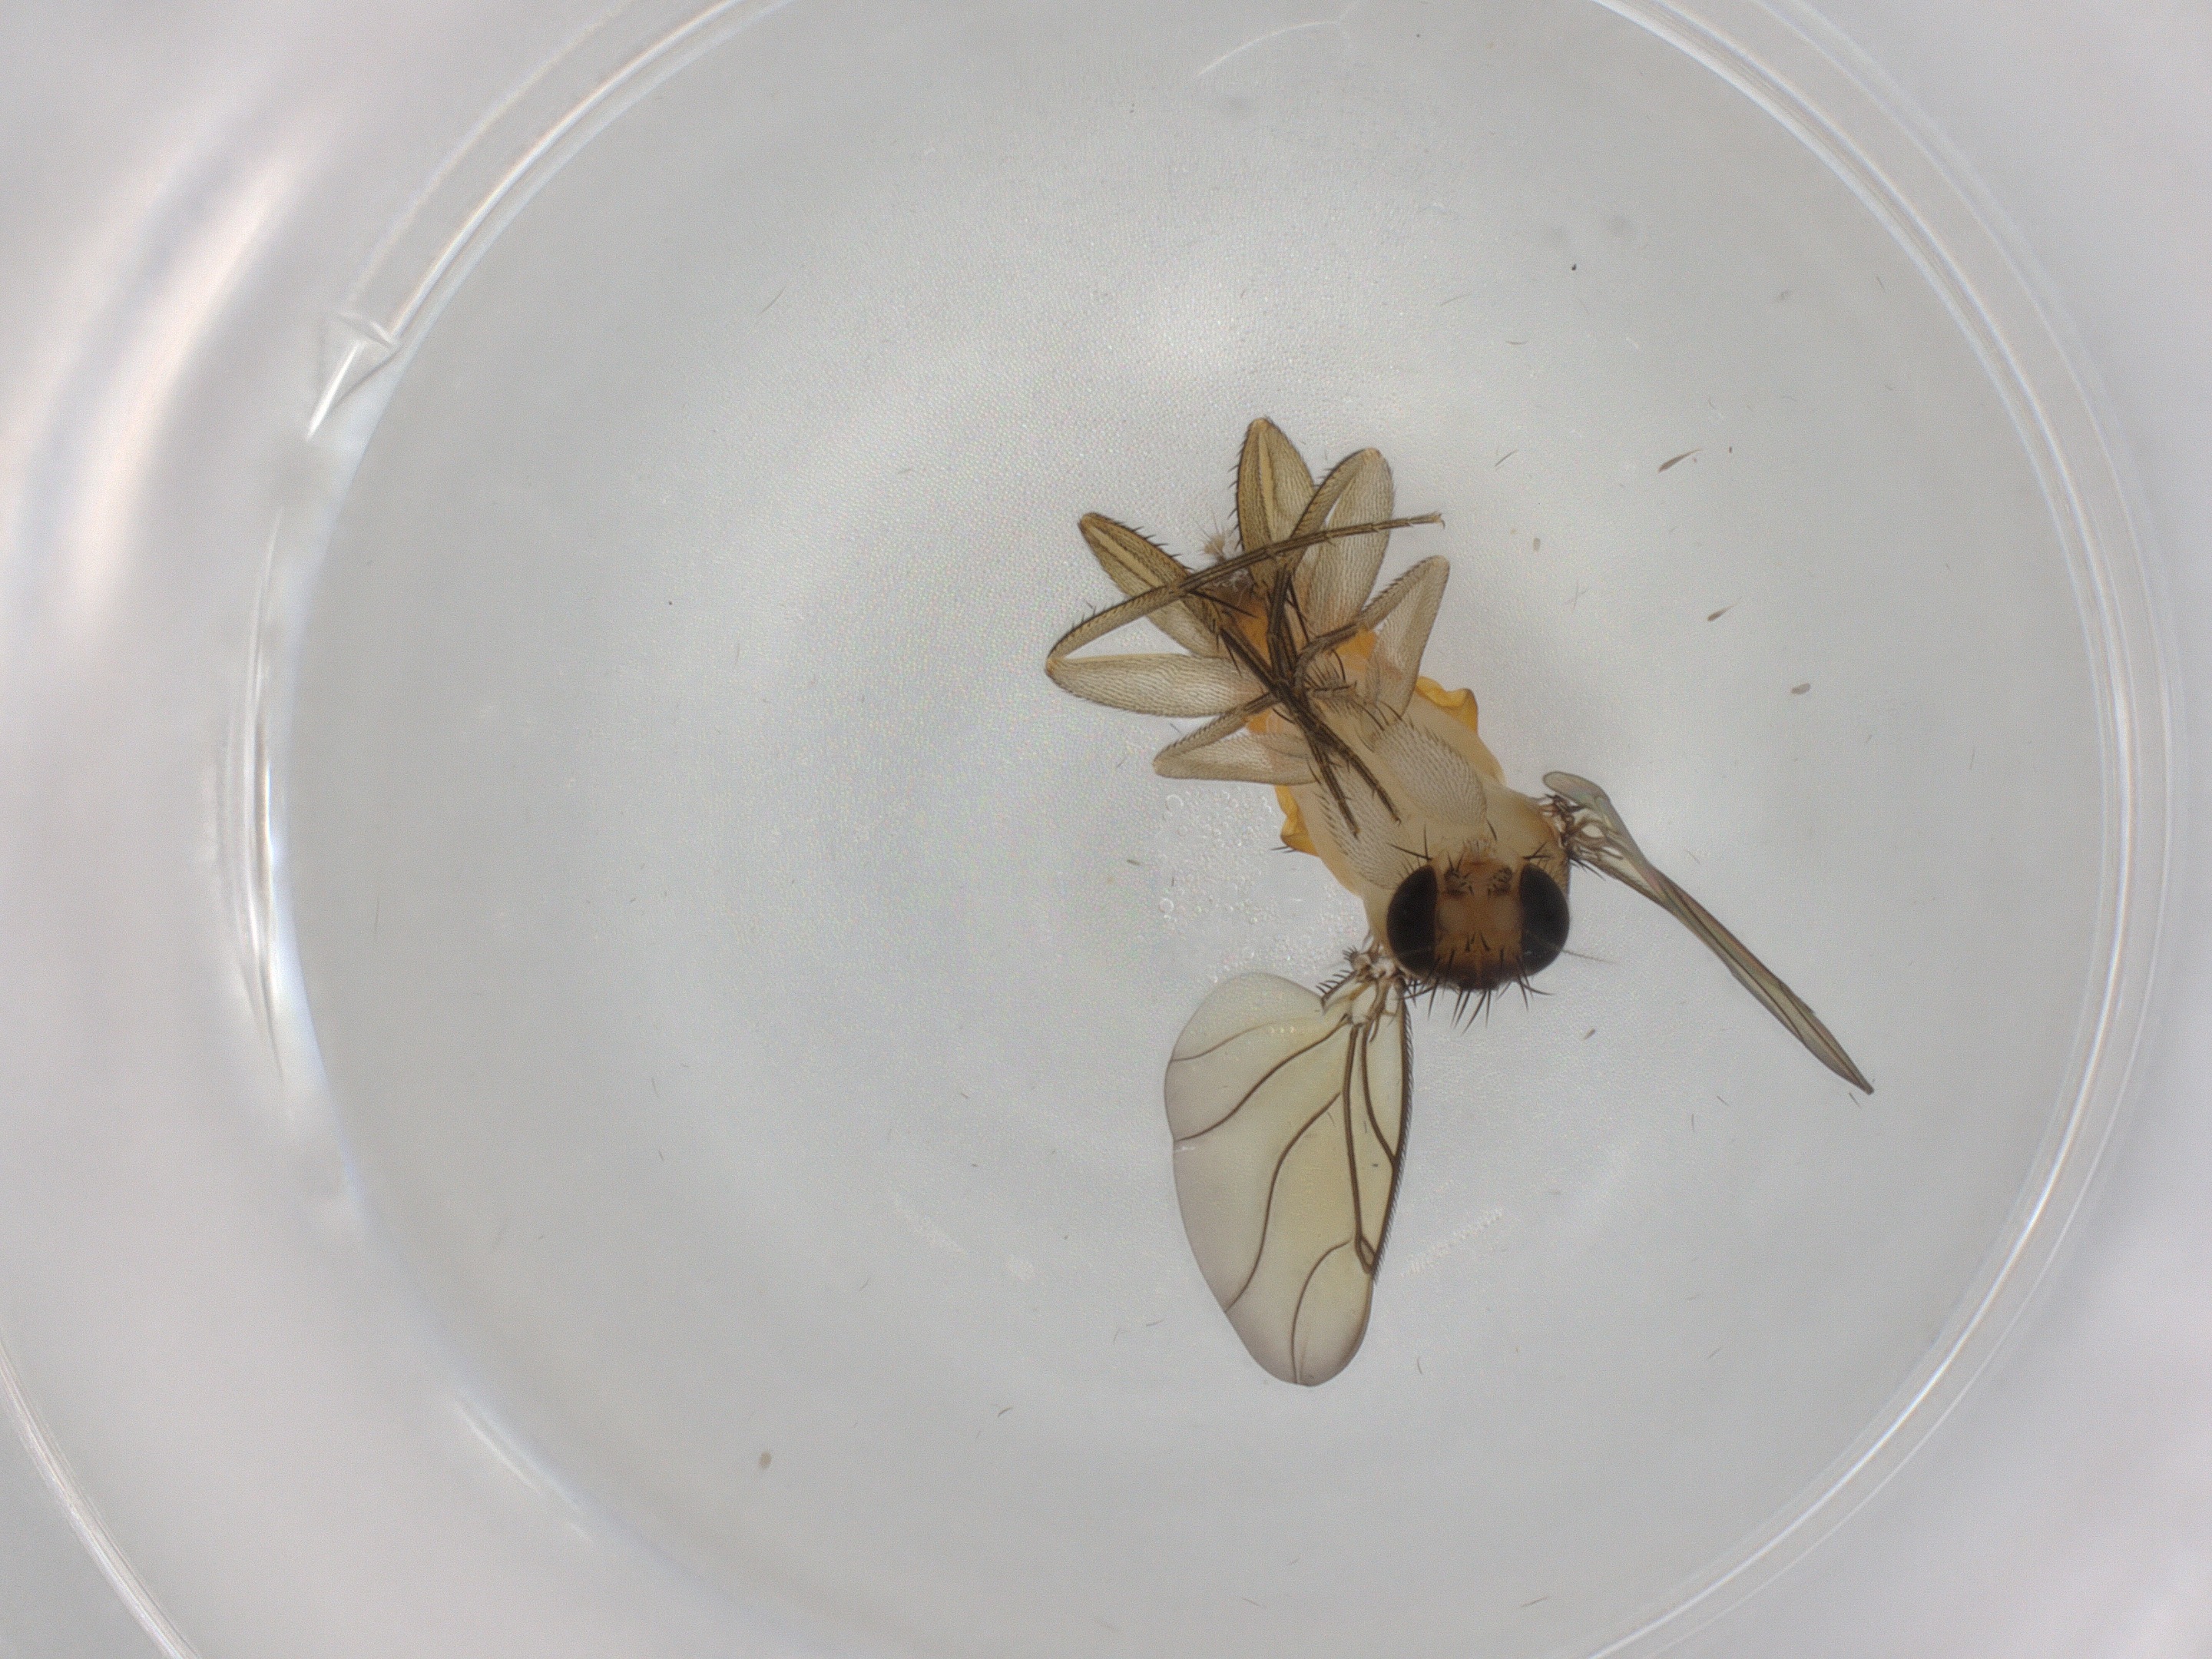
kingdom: Animalia
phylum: Arthropoda
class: Insecta
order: Diptera
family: Phoridae
